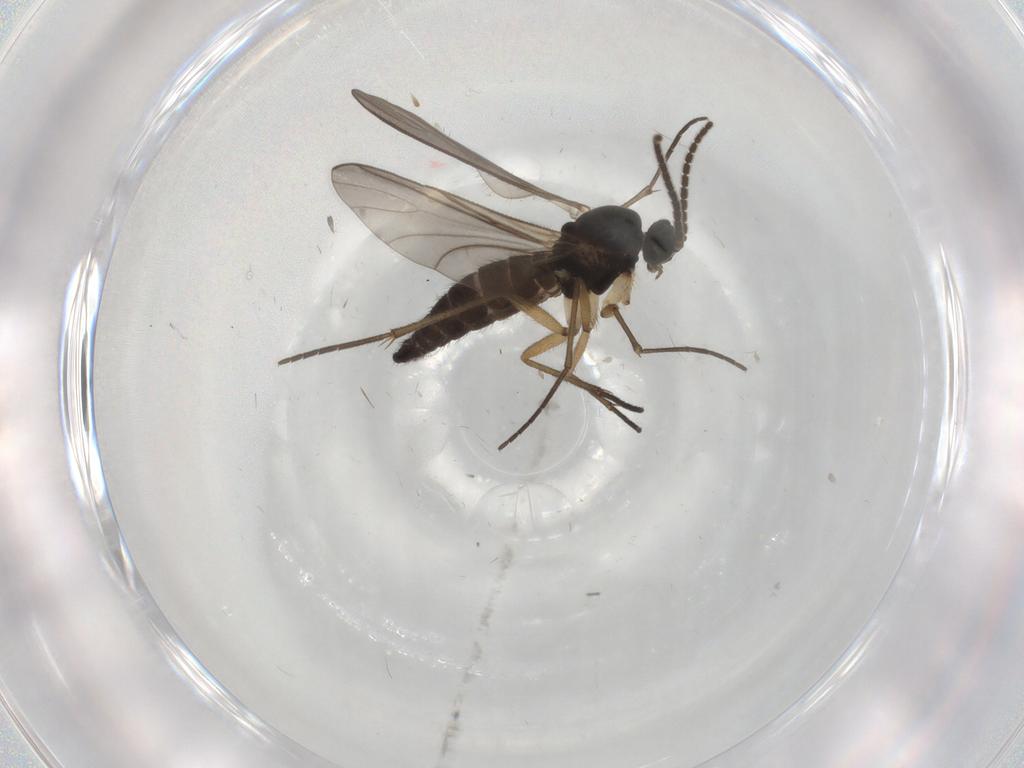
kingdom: Animalia
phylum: Arthropoda
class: Insecta
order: Diptera
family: Sciaridae
